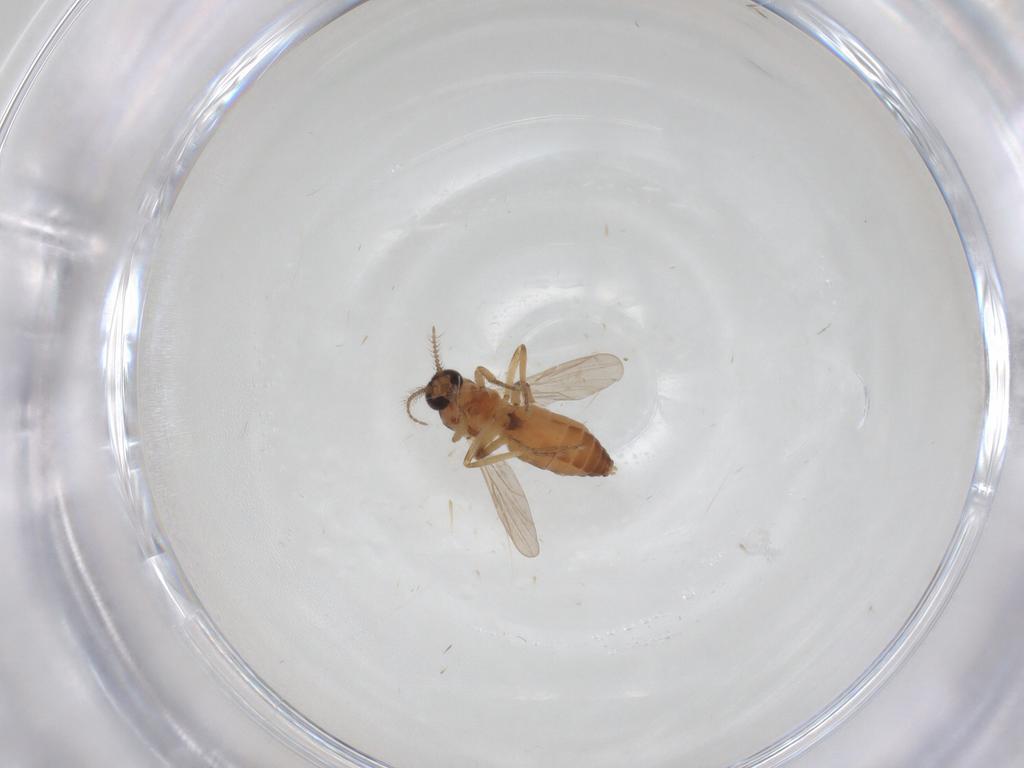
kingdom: Animalia
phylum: Arthropoda
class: Insecta
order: Diptera
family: Ceratopogonidae
